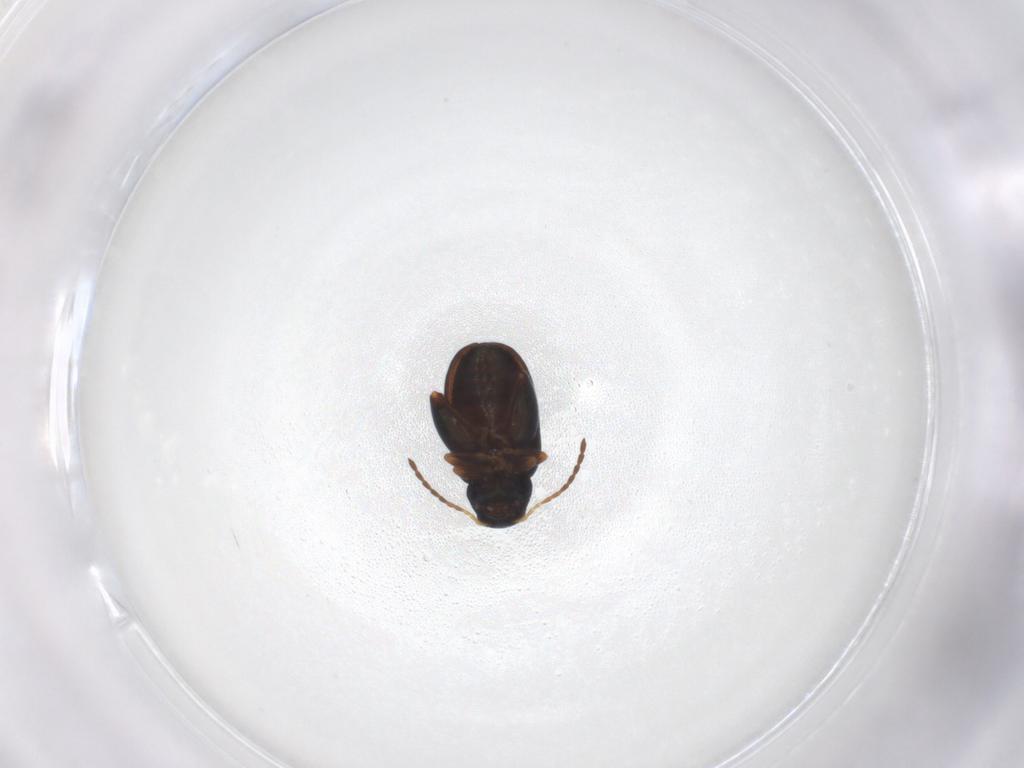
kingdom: Animalia
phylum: Arthropoda
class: Insecta
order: Coleoptera
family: Chrysomelidae
